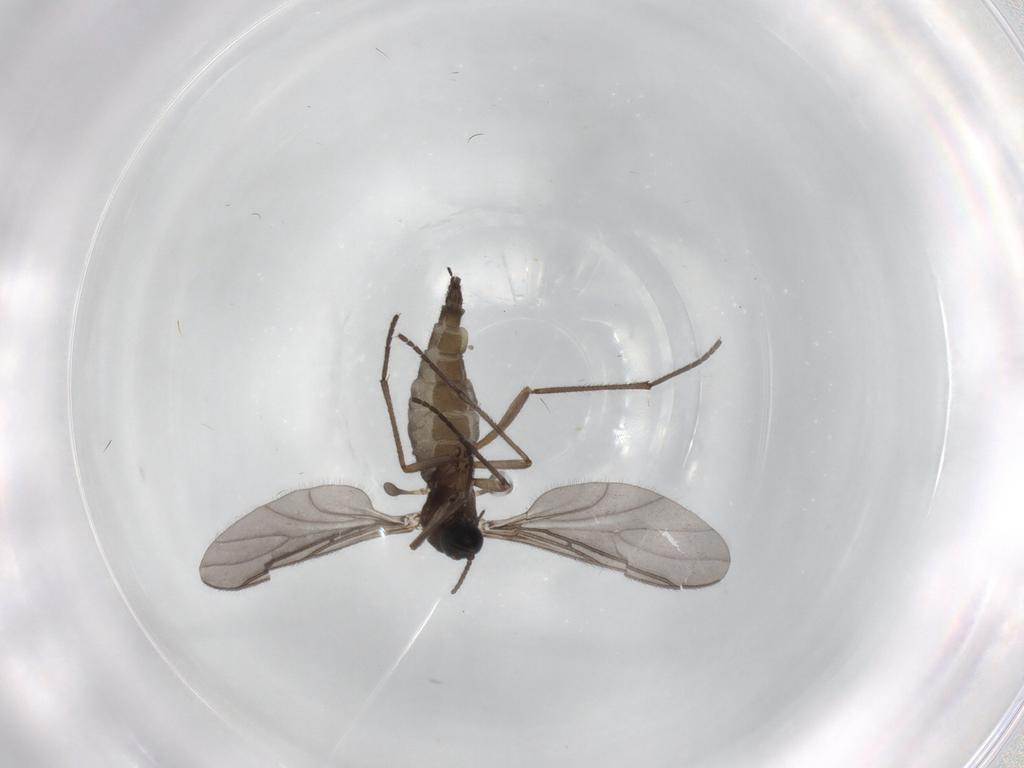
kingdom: Animalia
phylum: Arthropoda
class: Insecta
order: Diptera
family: Sciaridae
